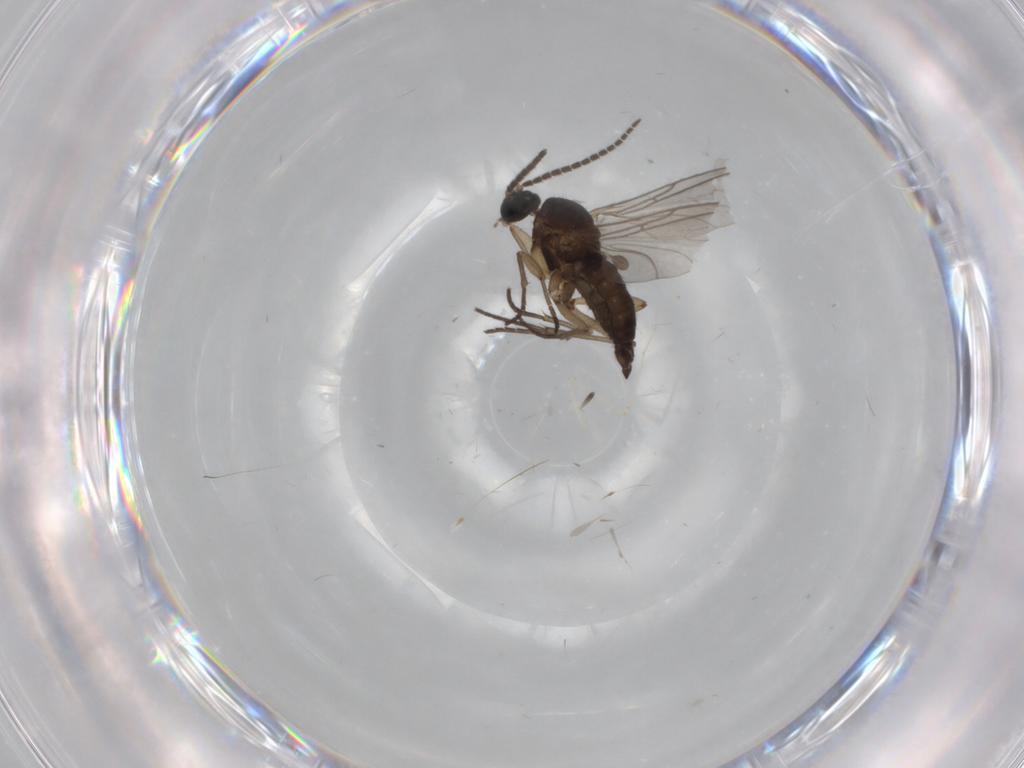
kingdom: Animalia
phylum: Arthropoda
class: Insecta
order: Diptera
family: Sciaridae
